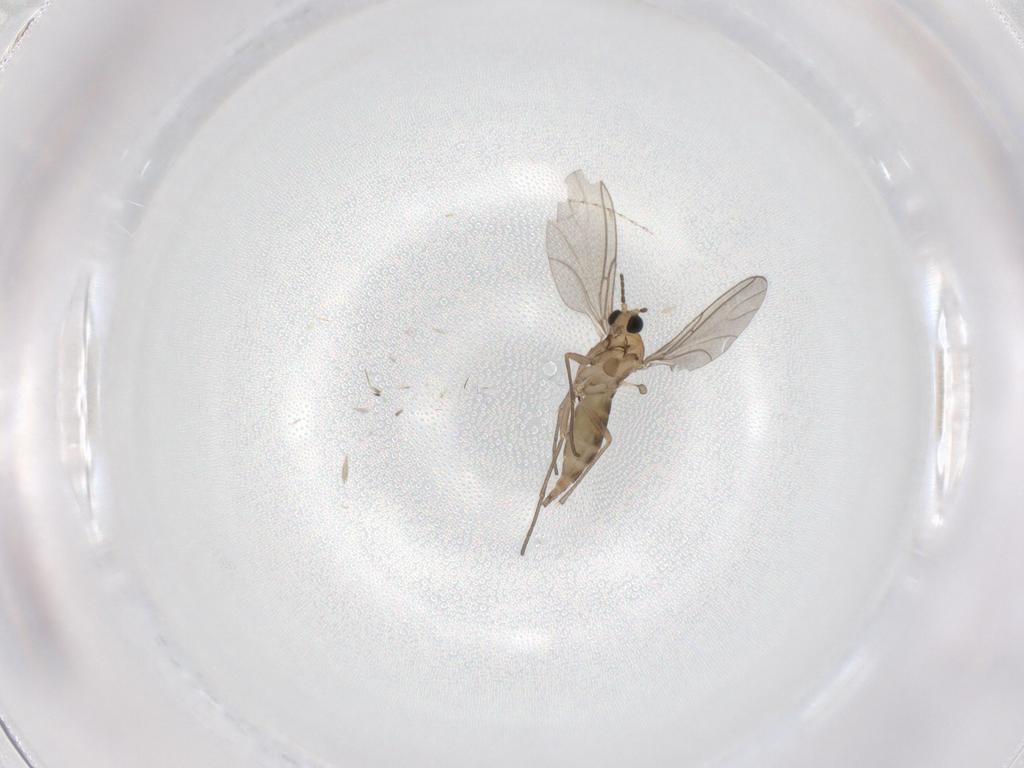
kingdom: Animalia
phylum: Arthropoda
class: Insecta
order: Diptera
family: Sciaridae
